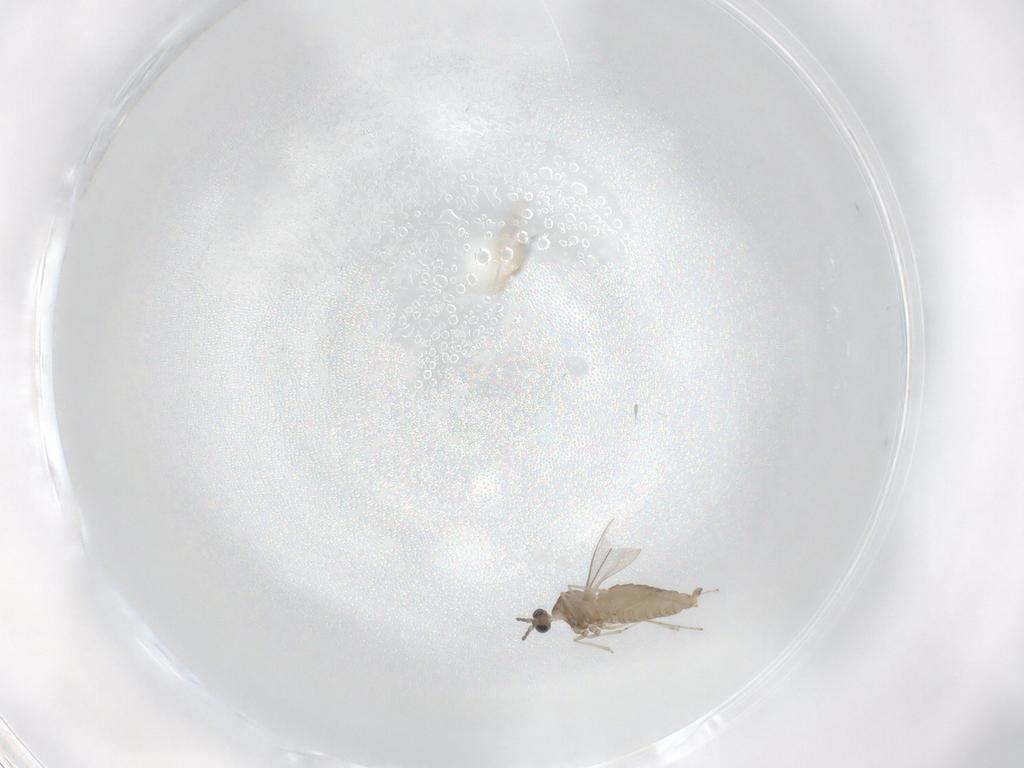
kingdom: Animalia
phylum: Arthropoda
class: Insecta
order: Diptera
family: Cecidomyiidae
